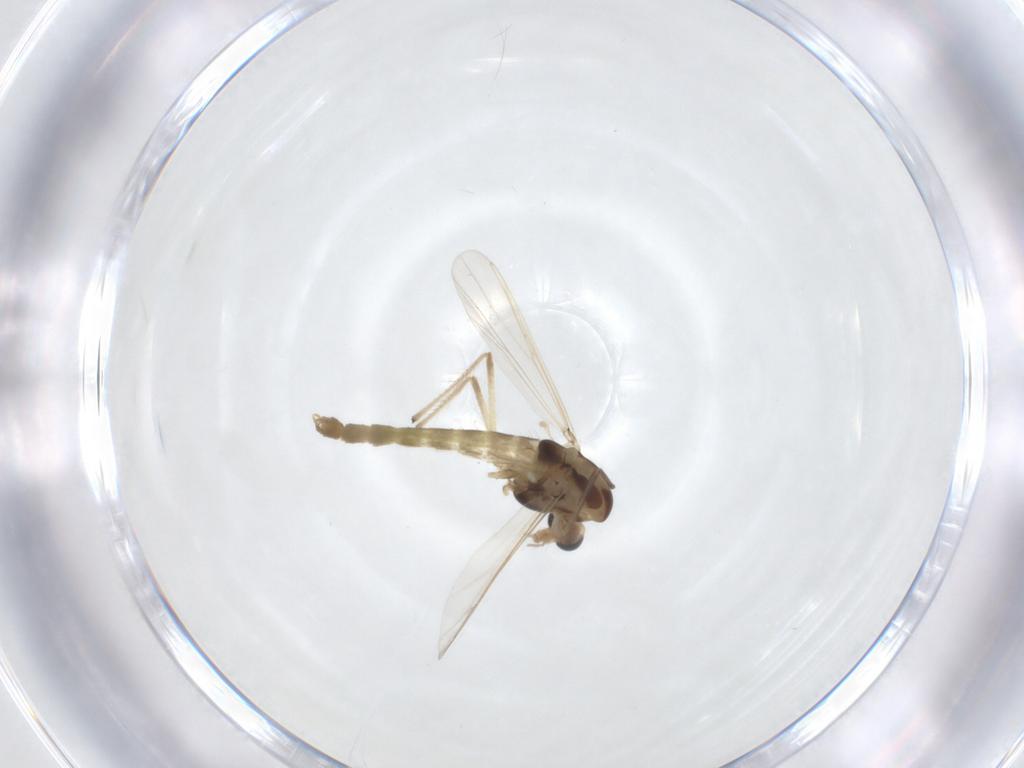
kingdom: Animalia
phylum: Arthropoda
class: Insecta
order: Diptera
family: Chironomidae
